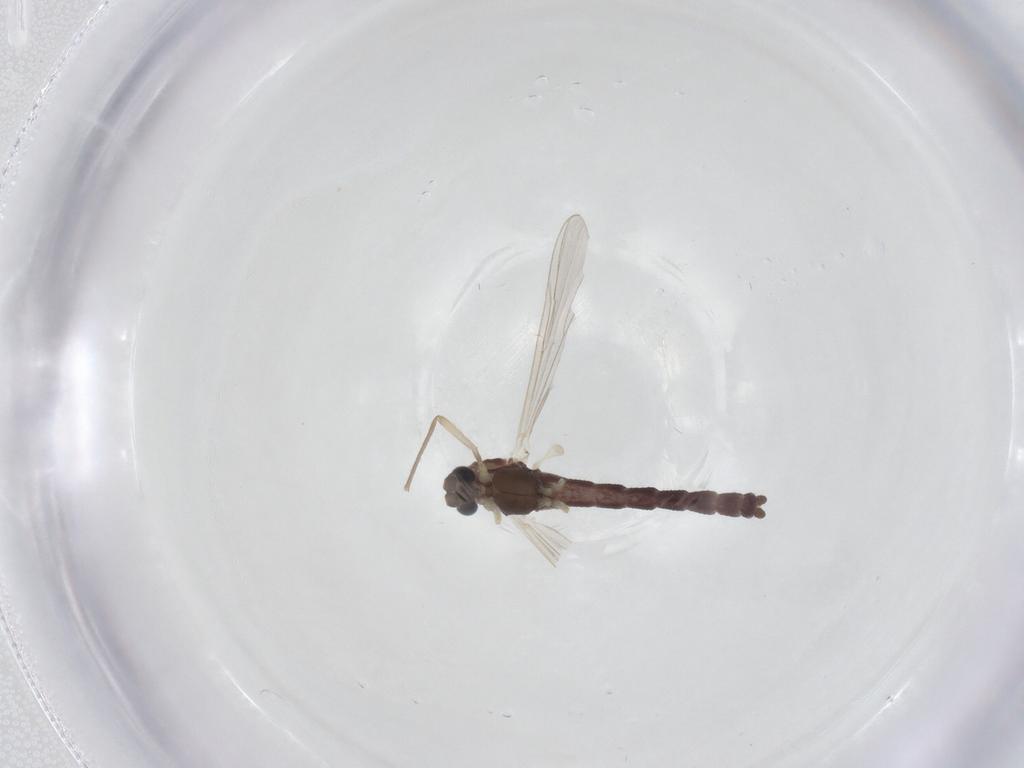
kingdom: Animalia
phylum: Arthropoda
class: Insecta
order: Diptera
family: Chironomidae
